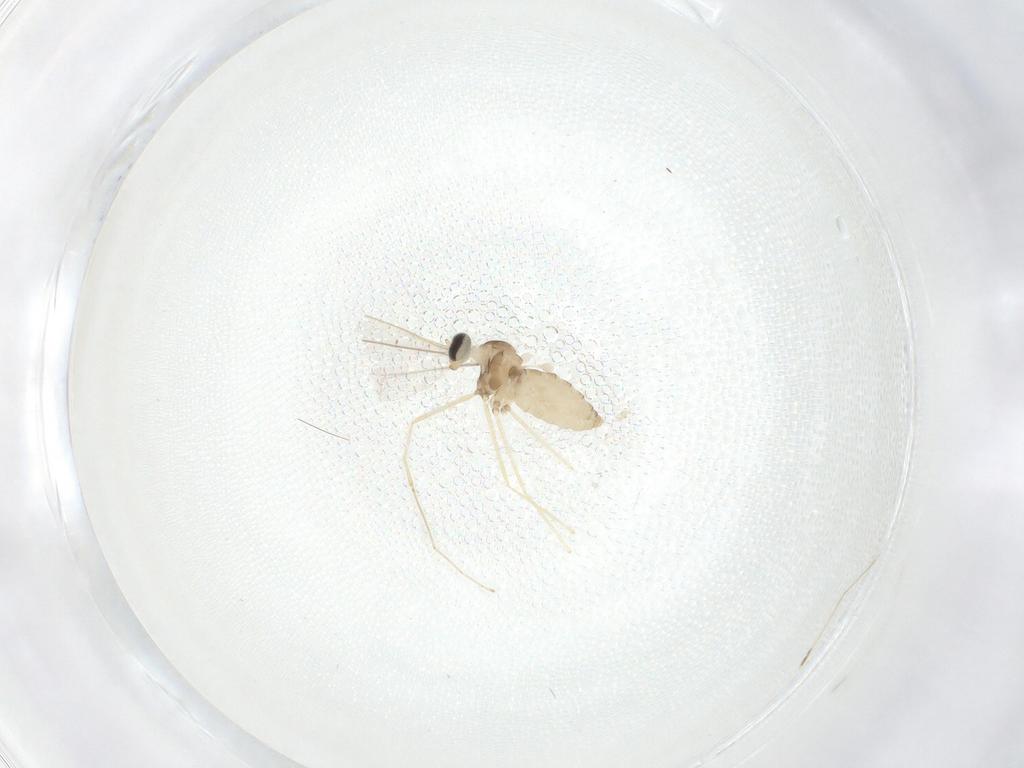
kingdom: Animalia
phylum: Arthropoda
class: Insecta
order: Diptera
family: Cecidomyiidae
